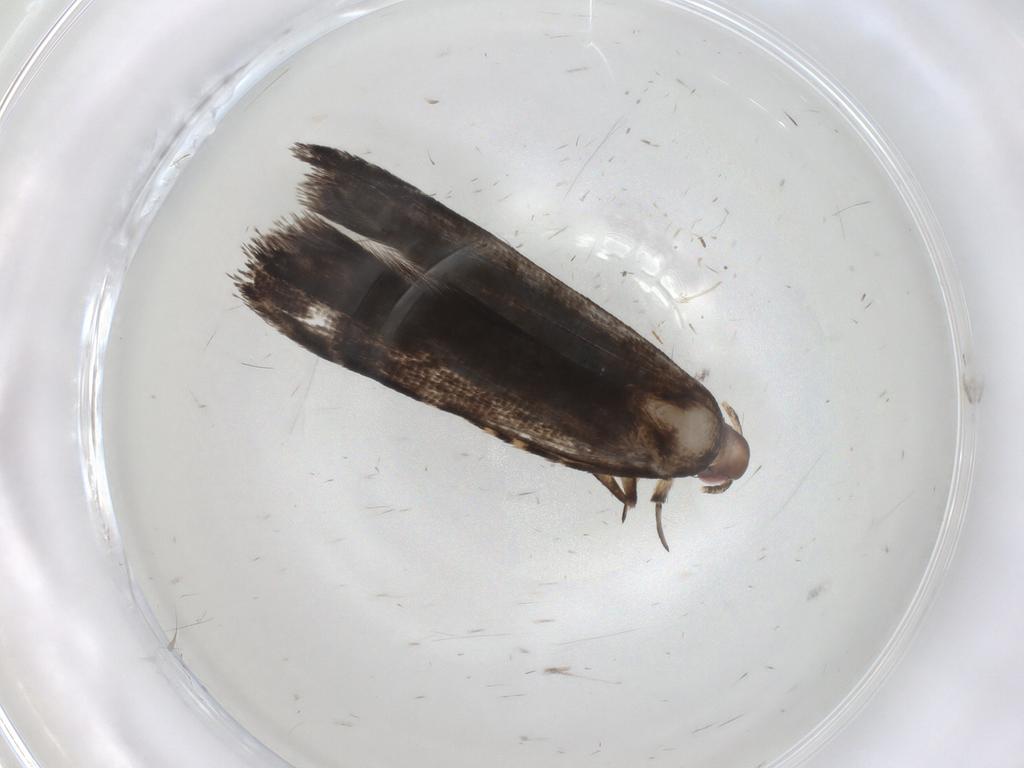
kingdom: Animalia
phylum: Arthropoda
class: Insecta
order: Lepidoptera
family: Gelechiidae
